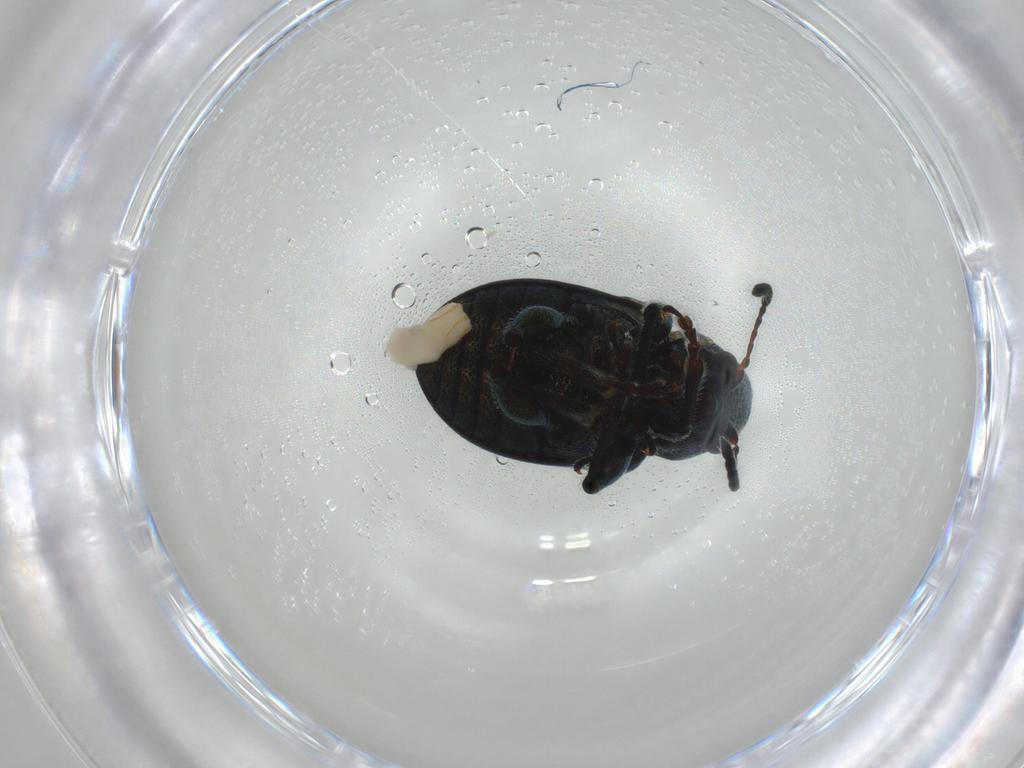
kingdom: Animalia
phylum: Arthropoda
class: Insecta
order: Coleoptera
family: Chrysomelidae
